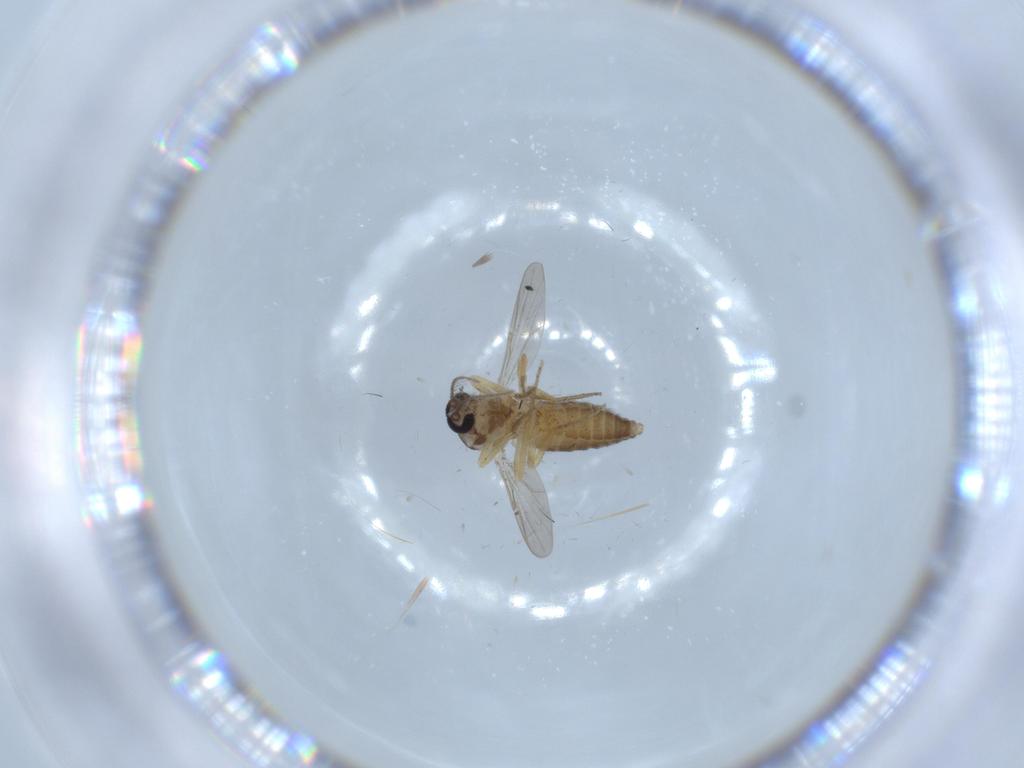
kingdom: Animalia
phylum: Arthropoda
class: Insecta
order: Diptera
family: Ceratopogonidae
